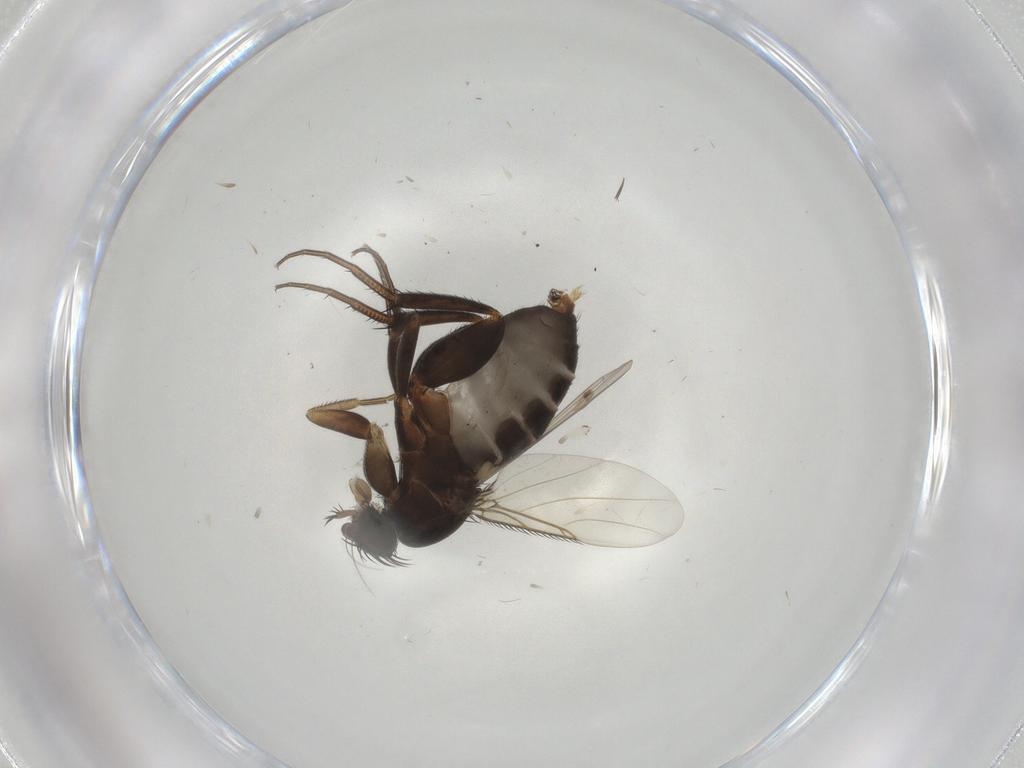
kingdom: Animalia
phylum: Arthropoda
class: Insecta
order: Diptera
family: Phoridae
